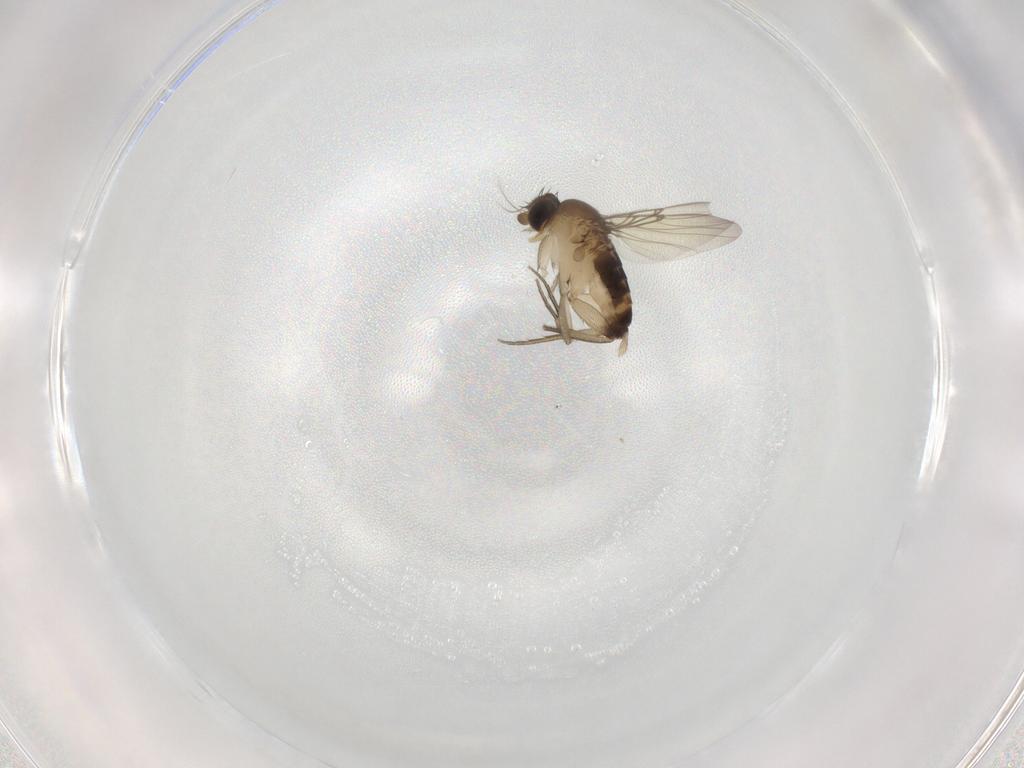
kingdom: Animalia
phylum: Arthropoda
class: Insecta
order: Diptera
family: Phoridae
